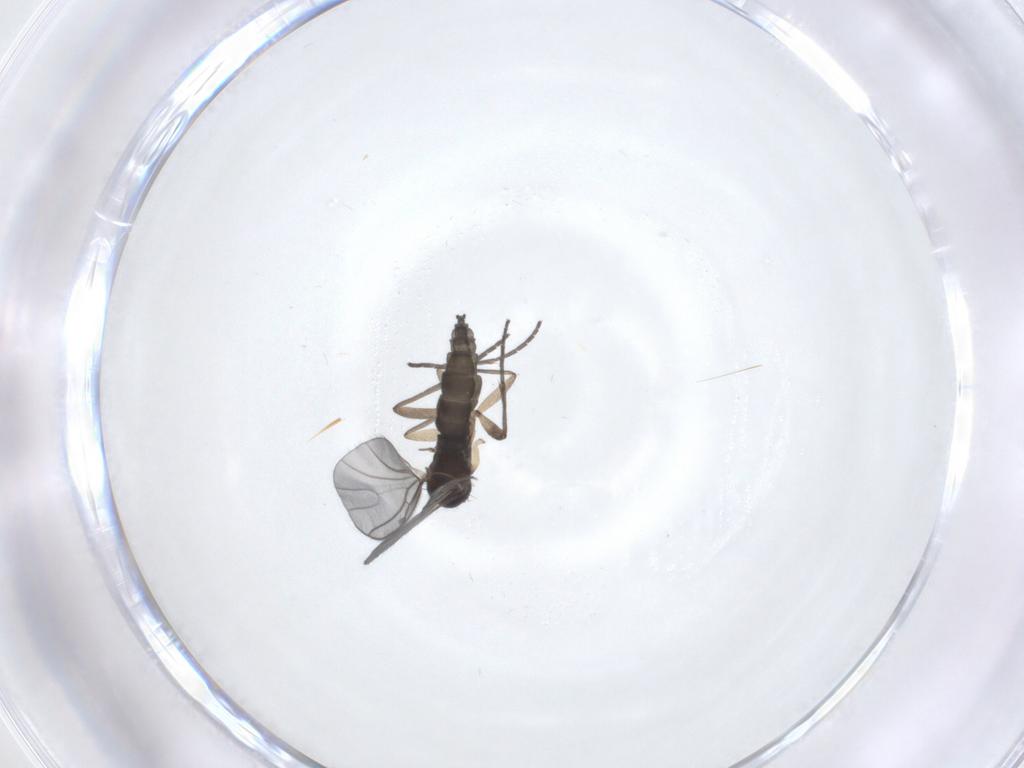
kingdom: Animalia
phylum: Arthropoda
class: Insecta
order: Diptera
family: Sciaridae
